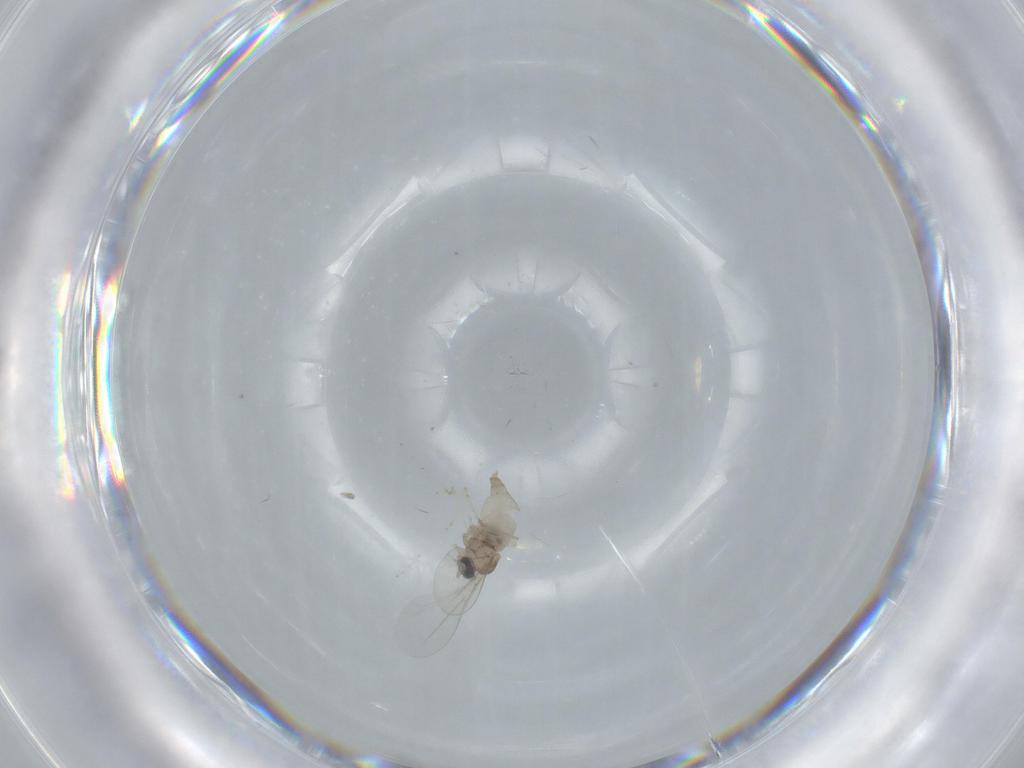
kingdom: Animalia
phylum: Arthropoda
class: Insecta
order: Diptera
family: Cecidomyiidae
